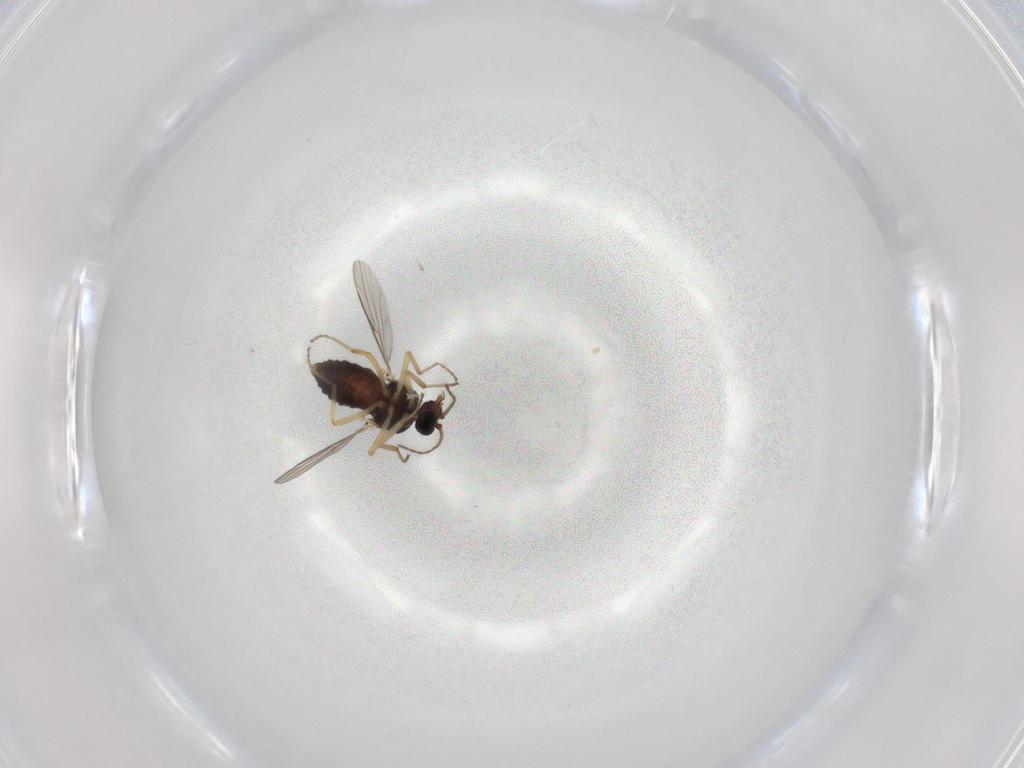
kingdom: Animalia
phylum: Arthropoda
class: Insecta
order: Diptera
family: Ceratopogonidae
